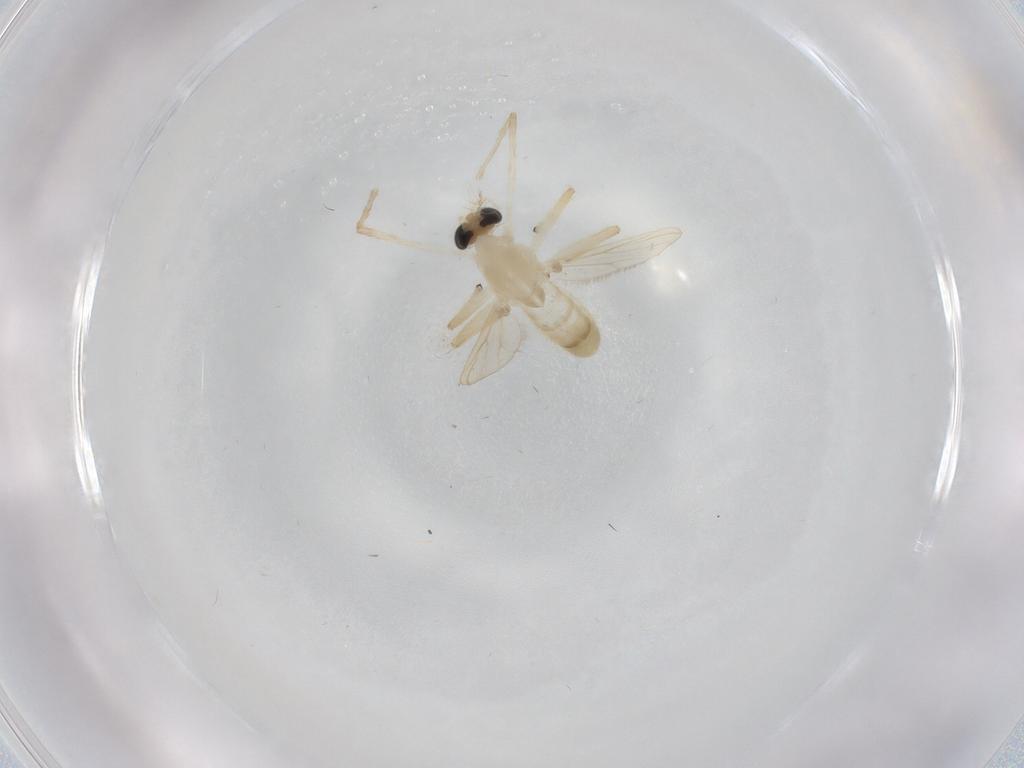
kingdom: Animalia
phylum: Arthropoda
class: Insecta
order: Diptera
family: Chironomidae
